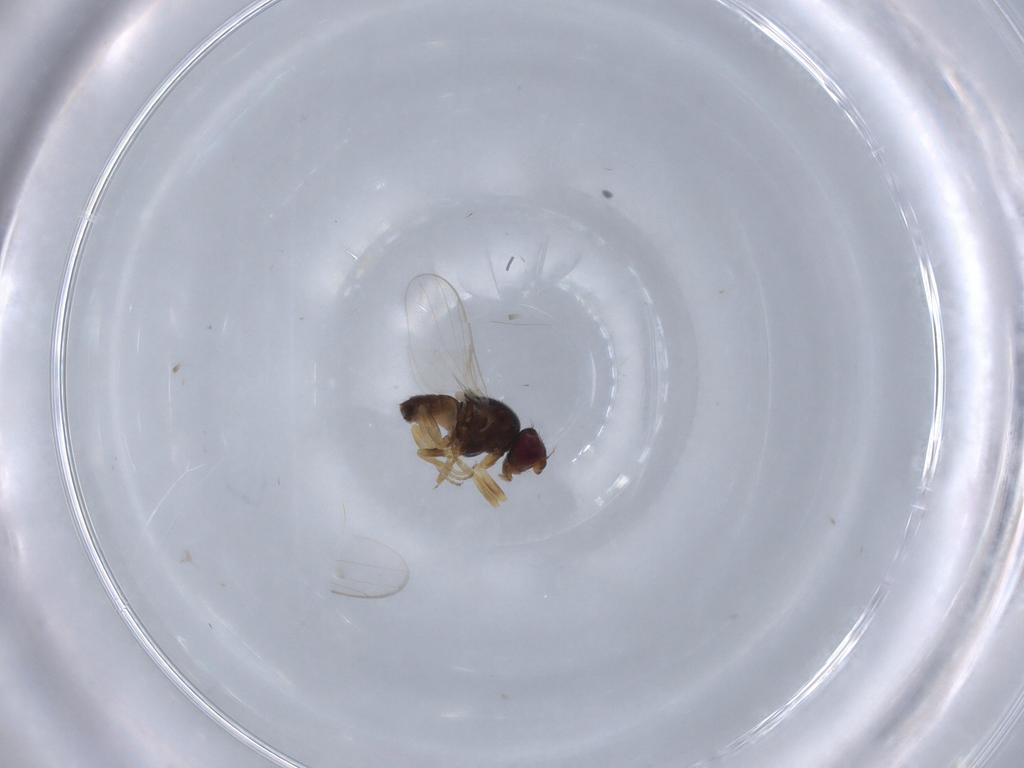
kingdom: Animalia
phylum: Arthropoda
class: Insecta
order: Diptera
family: Chloropidae
